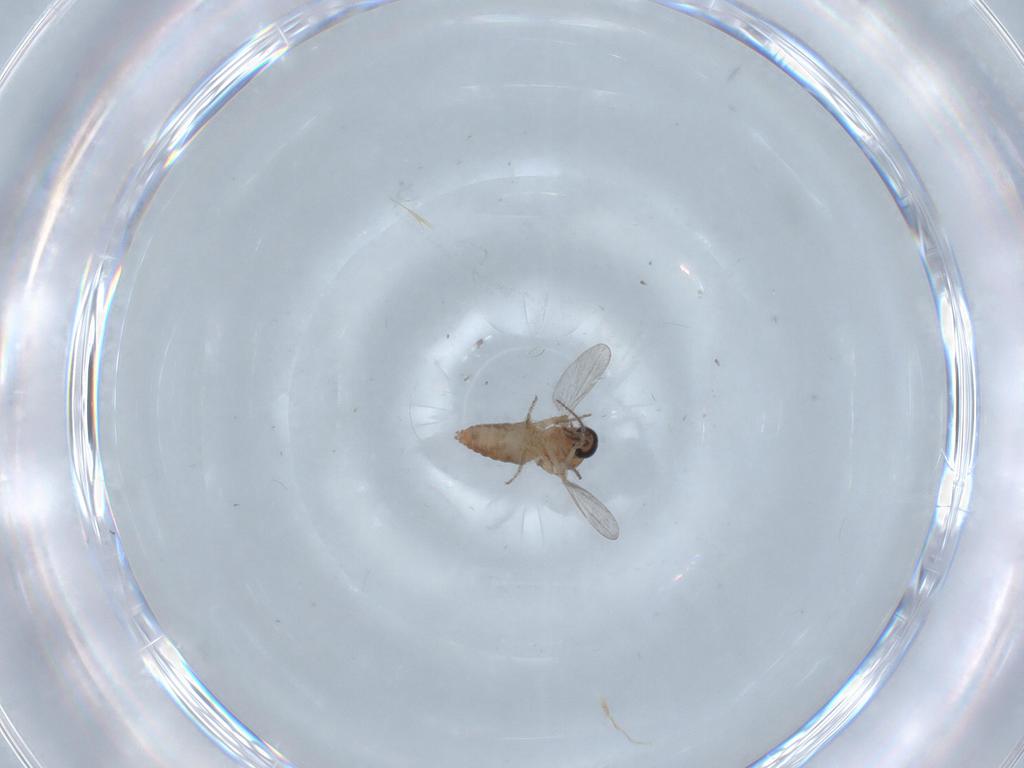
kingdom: Animalia
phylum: Arthropoda
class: Insecta
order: Diptera
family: Ceratopogonidae
